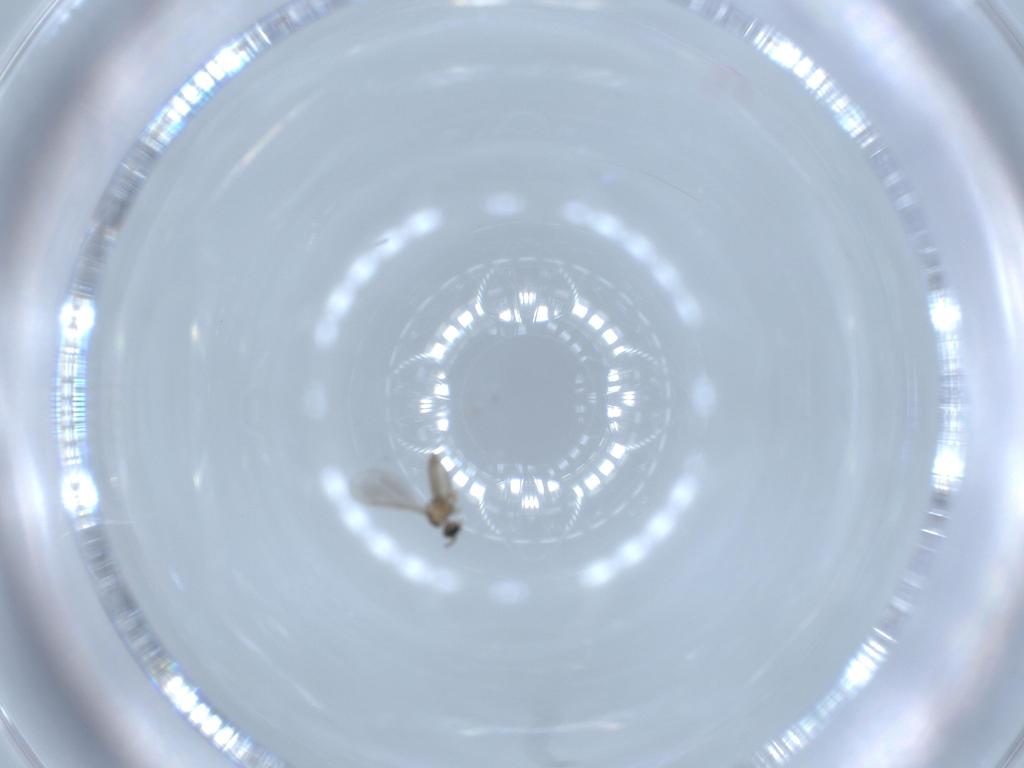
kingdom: Animalia
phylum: Arthropoda
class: Insecta
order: Diptera
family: Cecidomyiidae
